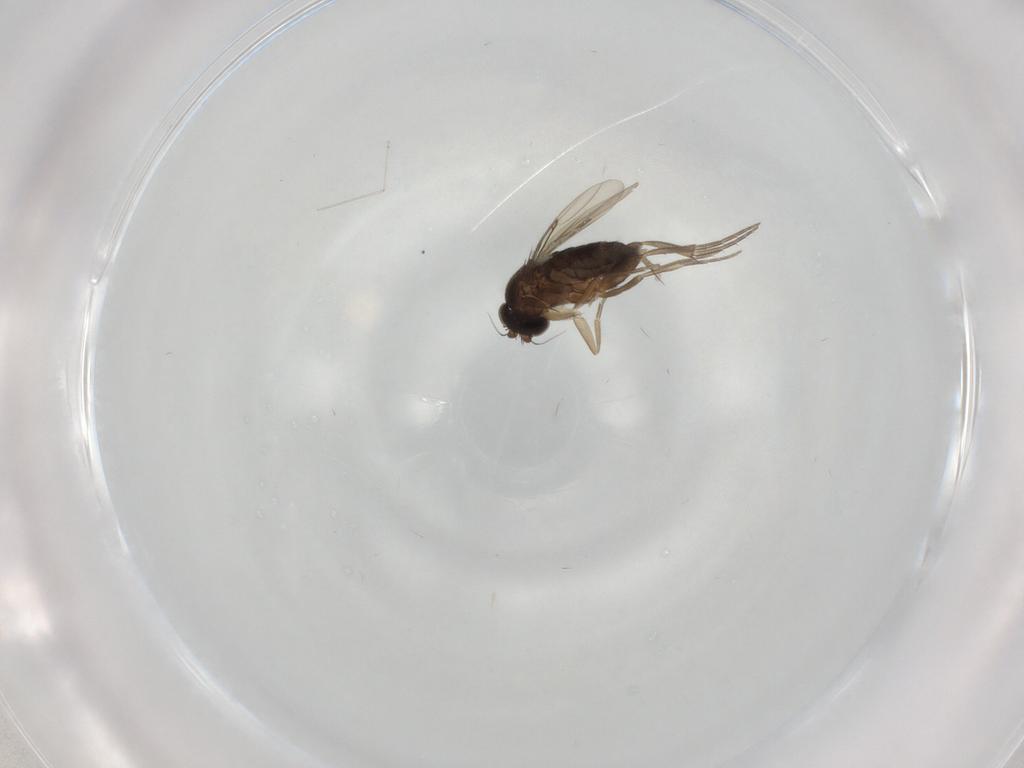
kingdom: Animalia
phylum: Arthropoda
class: Insecta
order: Diptera
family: Phoridae
